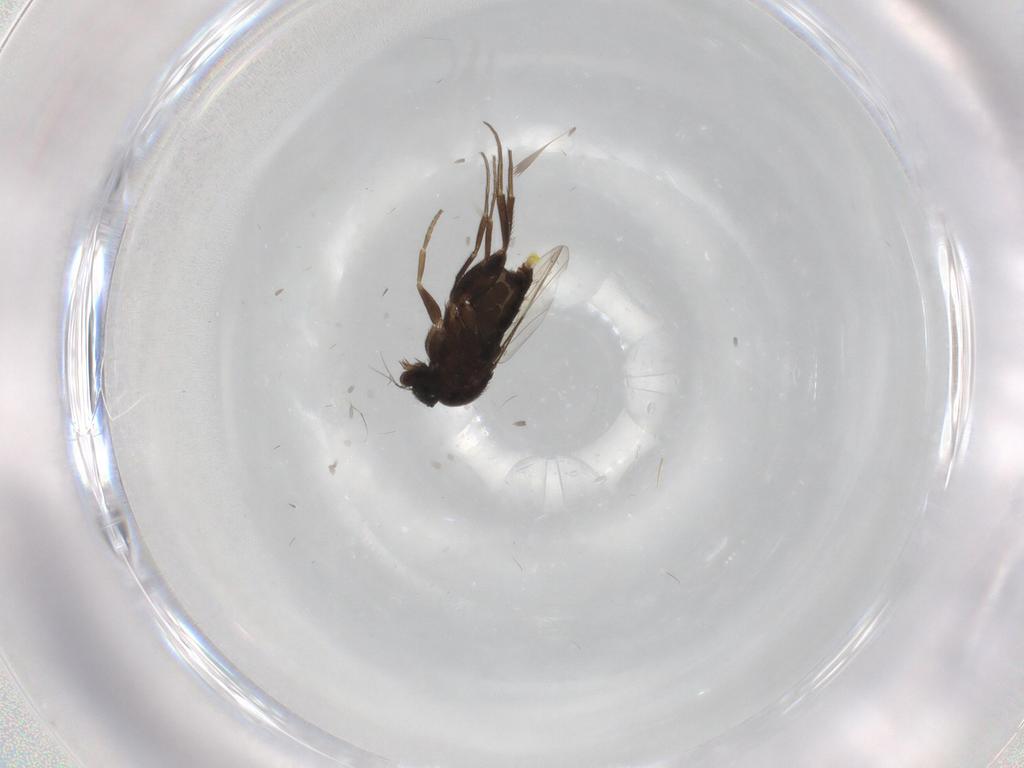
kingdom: Animalia
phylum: Arthropoda
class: Insecta
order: Diptera
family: Phoridae
